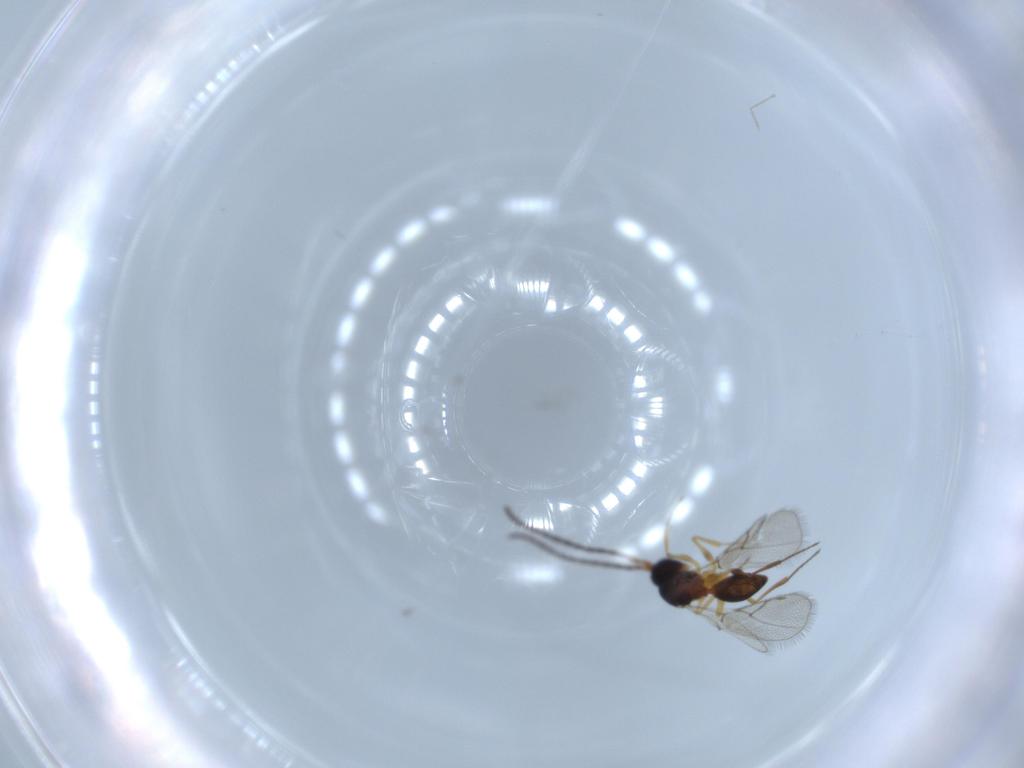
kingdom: Animalia
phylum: Arthropoda
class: Insecta
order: Hymenoptera
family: Figitidae
